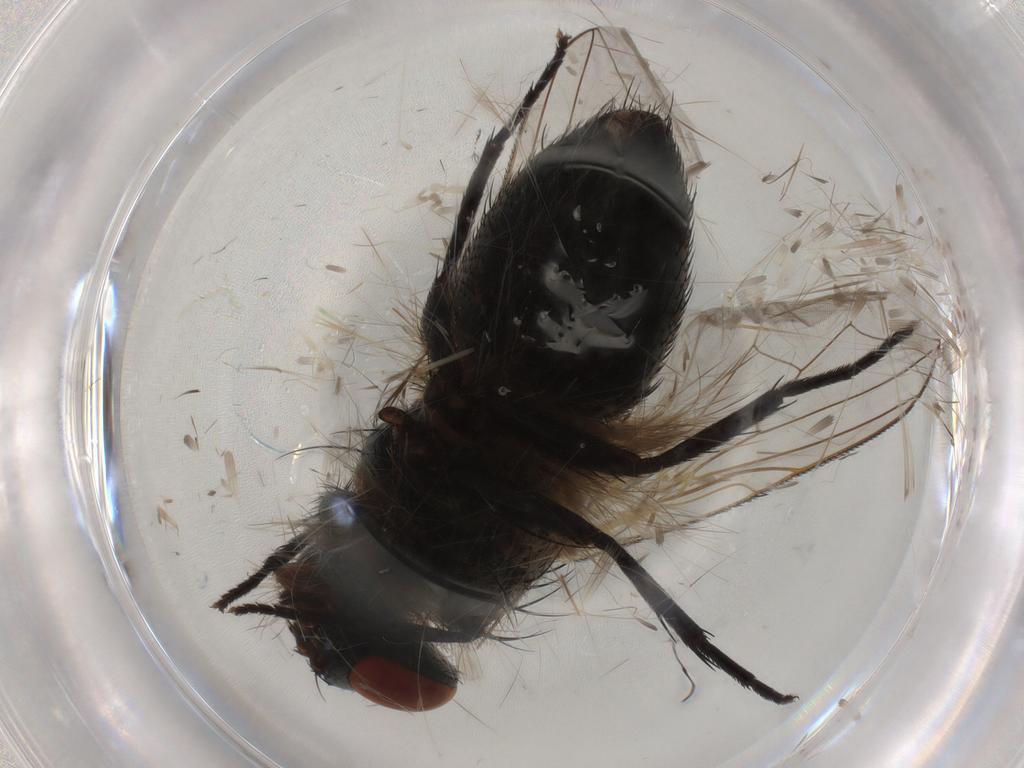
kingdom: Animalia
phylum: Arthropoda
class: Insecta
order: Diptera
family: Sarcophagidae
